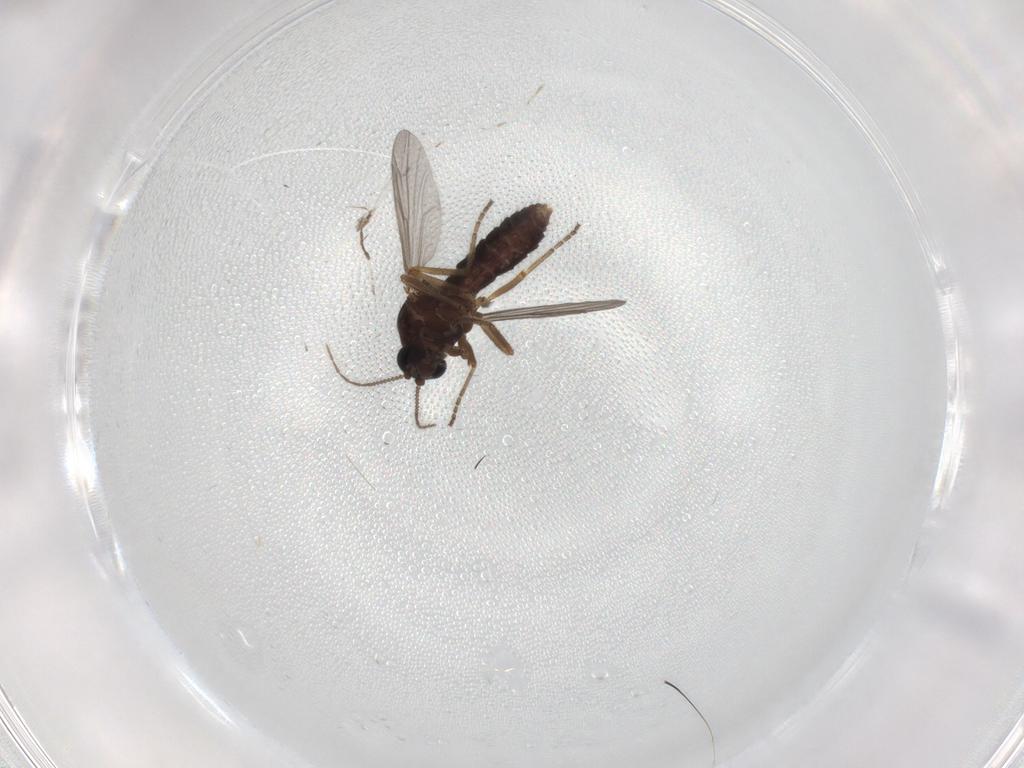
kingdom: Animalia
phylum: Arthropoda
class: Insecta
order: Diptera
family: Ceratopogonidae
